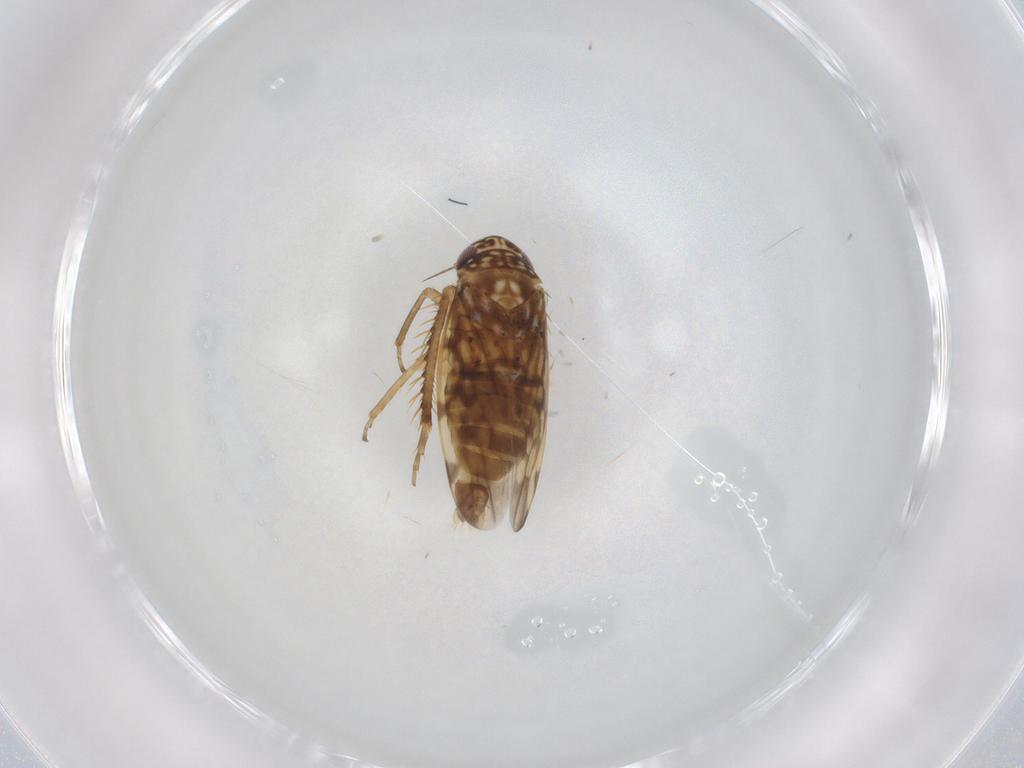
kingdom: Animalia
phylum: Arthropoda
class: Insecta
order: Hemiptera
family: Cicadellidae
